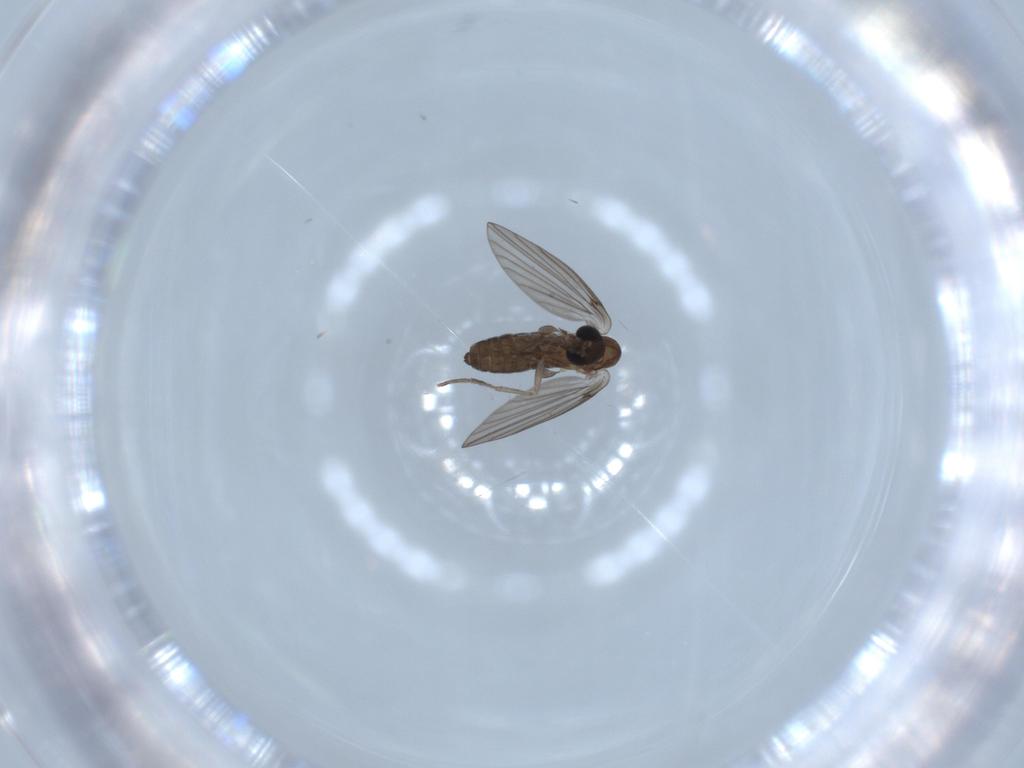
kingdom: Animalia
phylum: Arthropoda
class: Insecta
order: Diptera
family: Psychodidae
